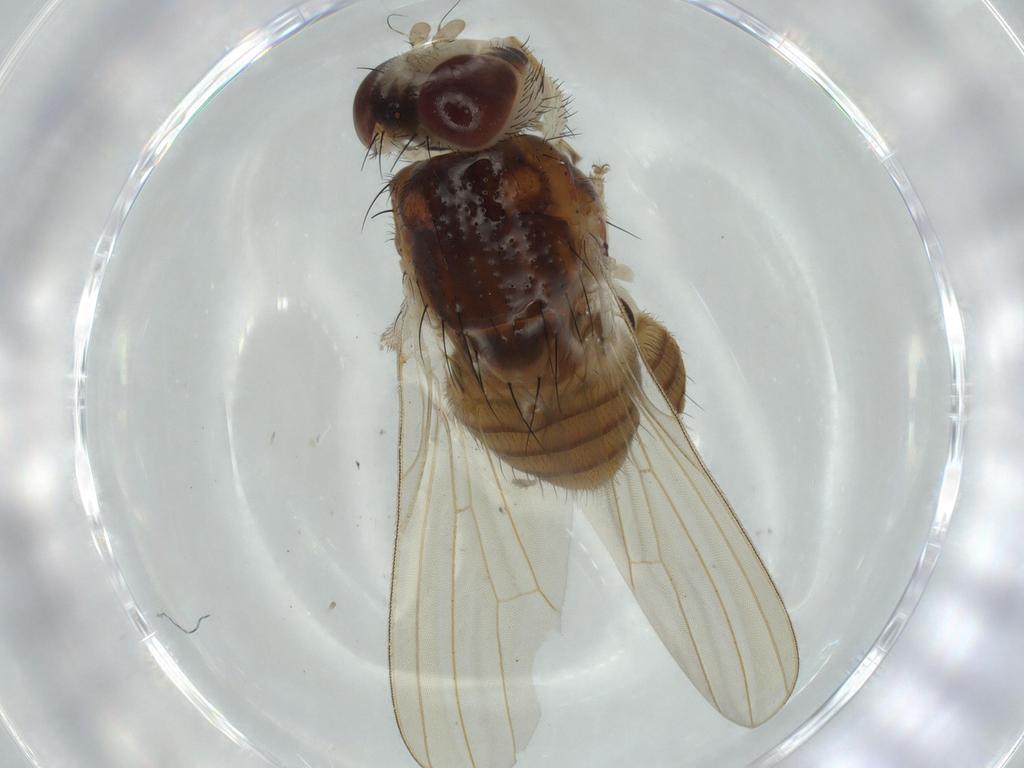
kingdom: Animalia
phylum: Arthropoda
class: Insecta
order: Diptera
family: Lauxaniidae
